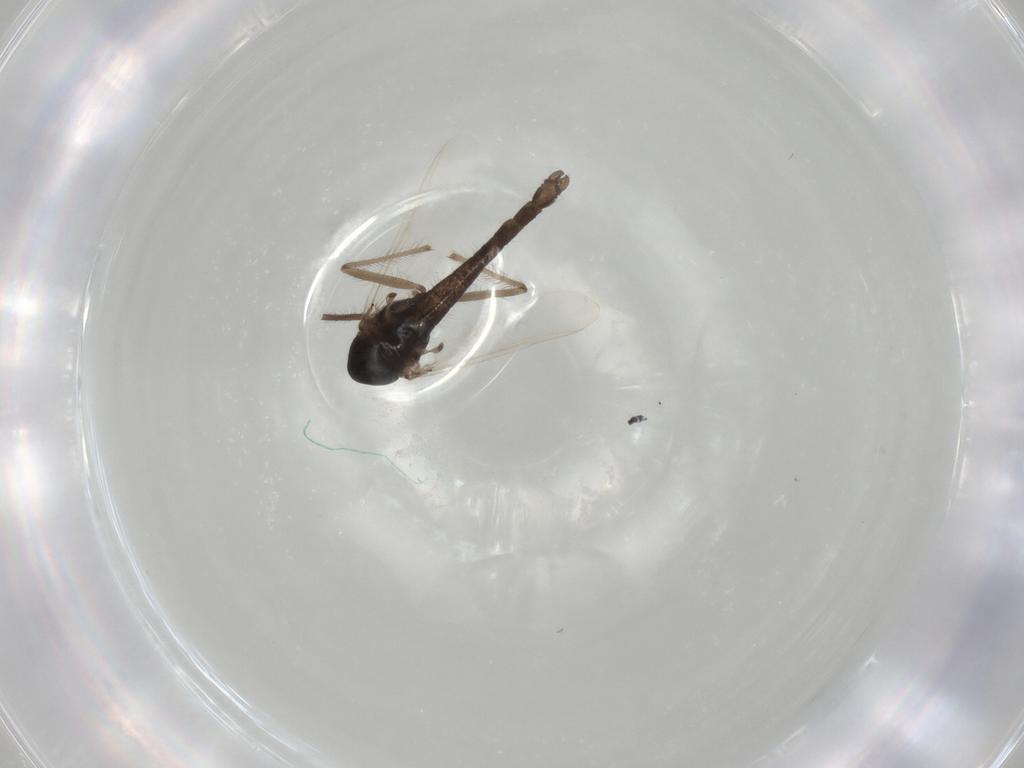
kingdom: Animalia
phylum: Arthropoda
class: Insecta
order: Diptera
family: Chironomidae
